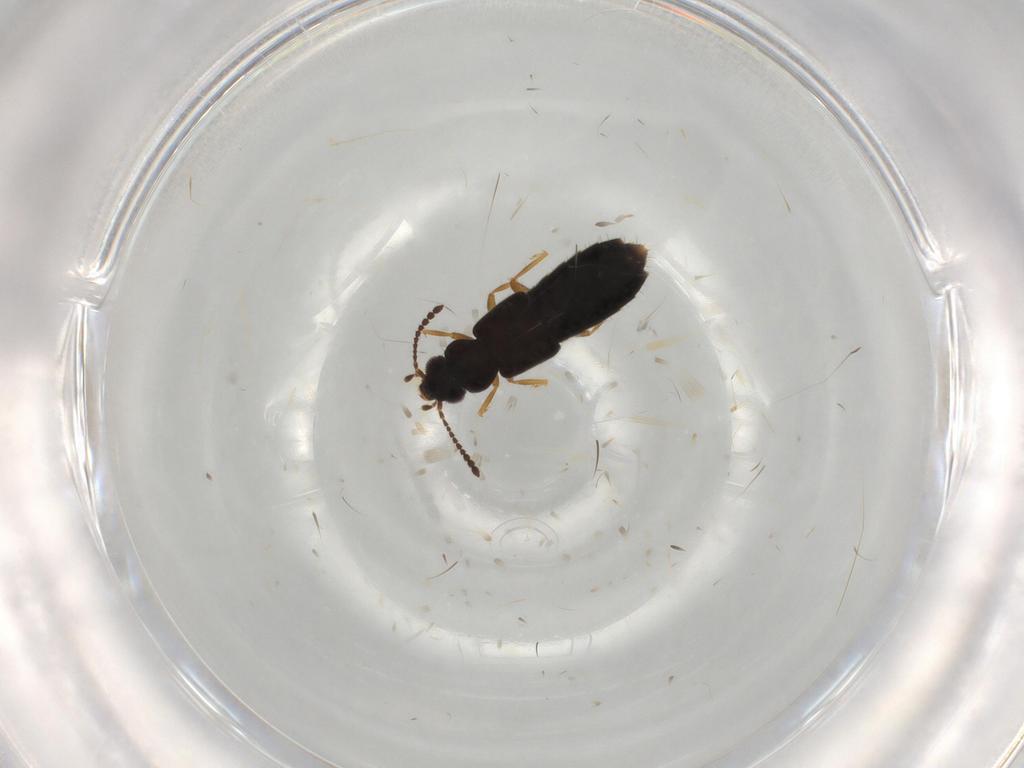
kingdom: Animalia
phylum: Arthropoda
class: Insecta
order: Coleoptera
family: Staphylinidae
